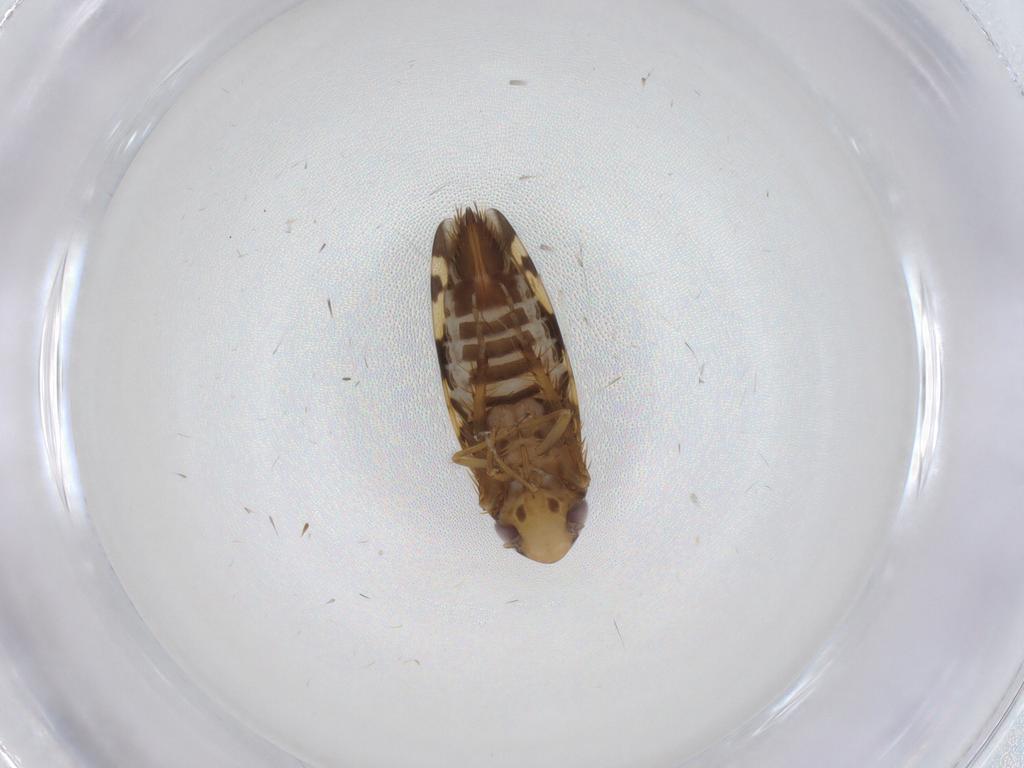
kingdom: Animalia
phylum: Arthropoda
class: Insecta
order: Hemiptera
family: Cicadellidae
